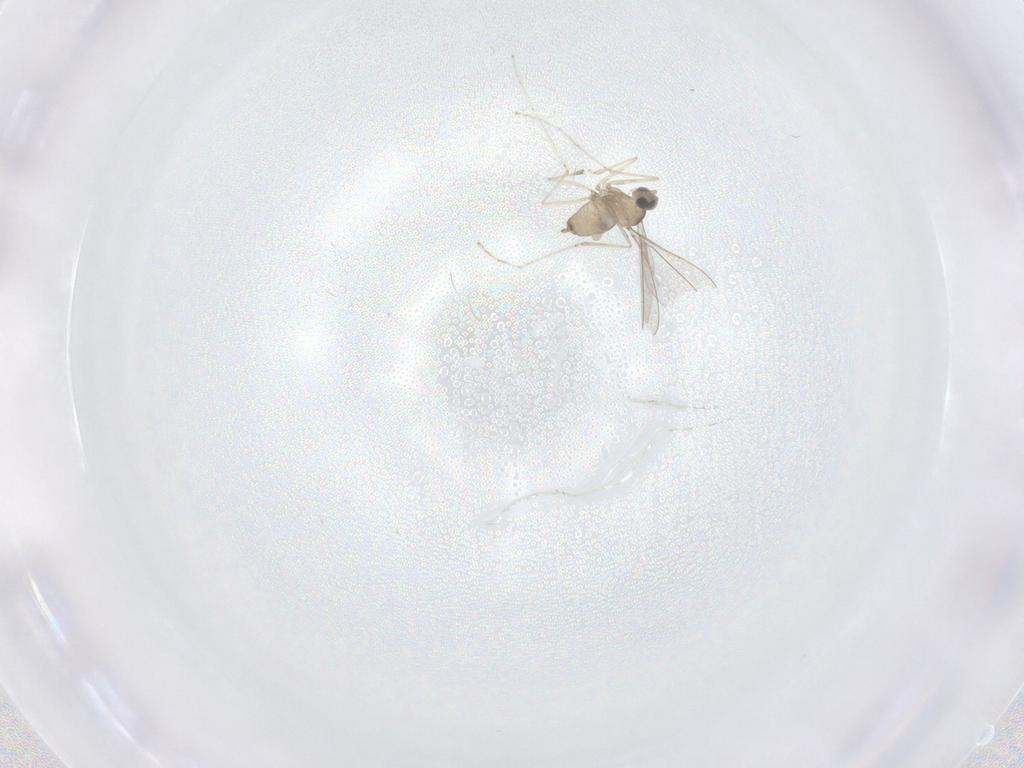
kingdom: Animalia
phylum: Arthropoda
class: Insecta
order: Diptera
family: Cecidomyiidae
